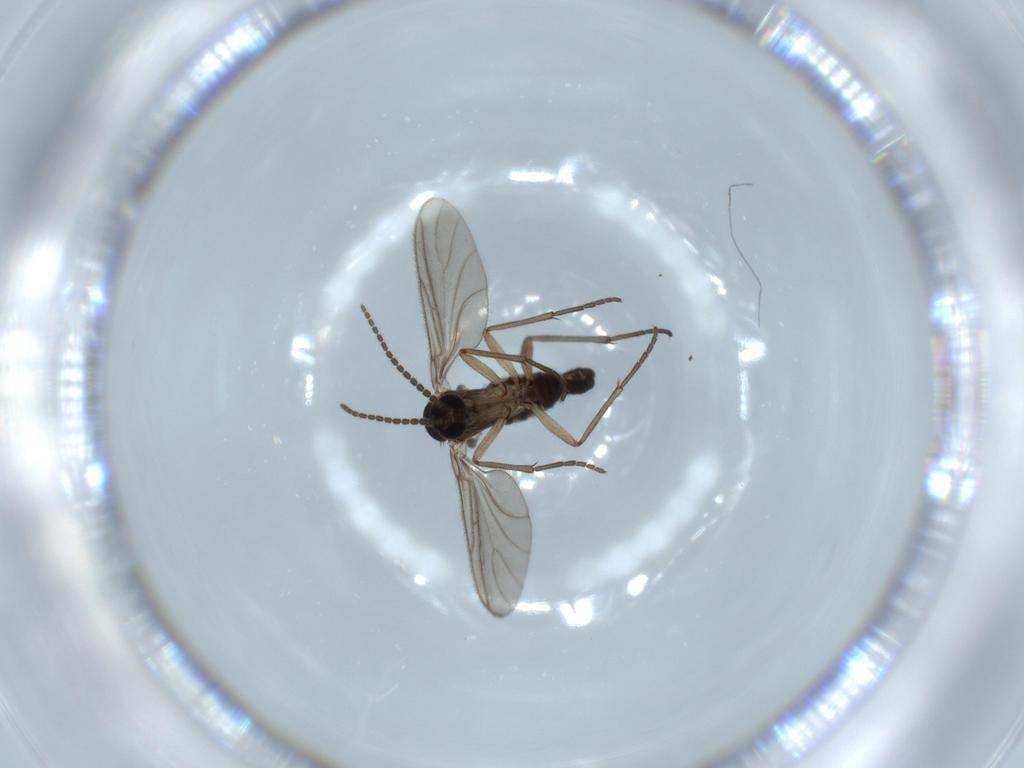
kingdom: Animalia
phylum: Arthropoda
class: Insecta
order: Diptera
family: Sciaridae
